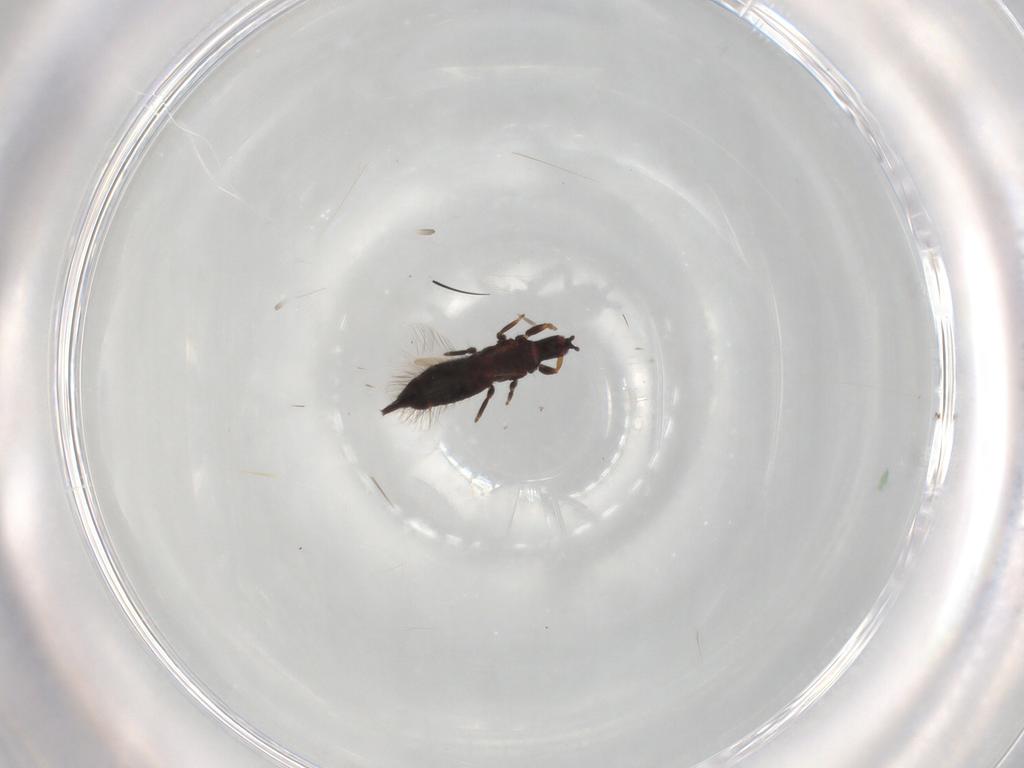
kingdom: Animalia
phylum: Arthropoda
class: Insecta
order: Thysanoptera
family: Phlaeothripidae
